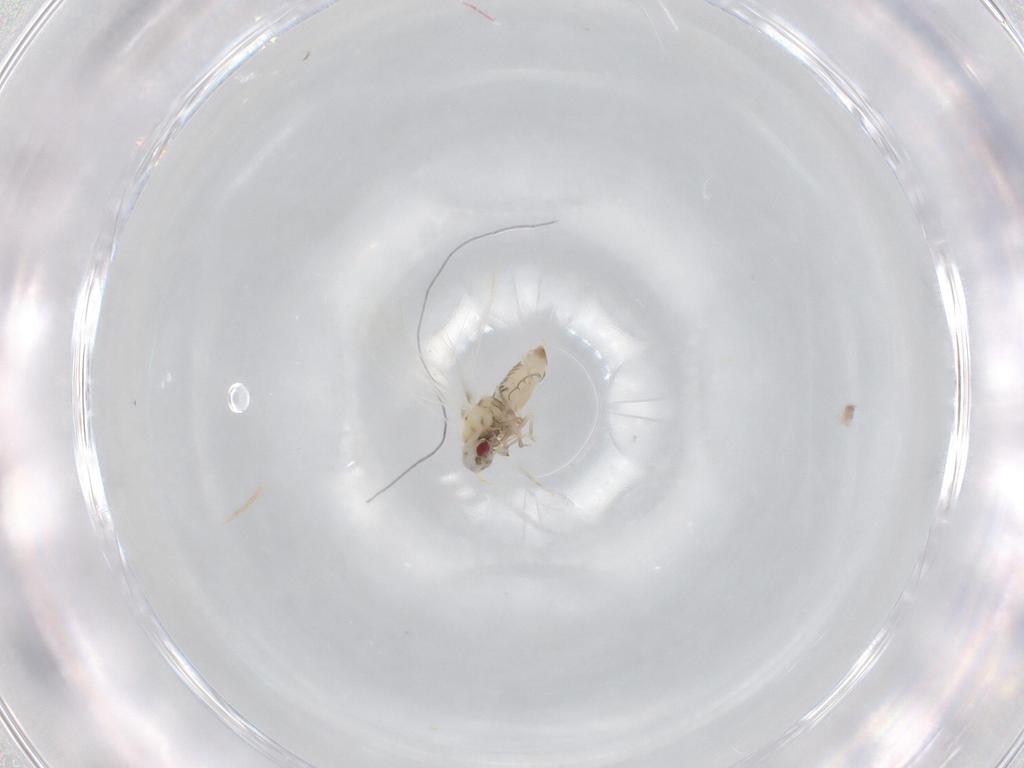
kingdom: Animalia
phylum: Arthropoda
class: Insecta
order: Hemiptera
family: Aleyrodidae
